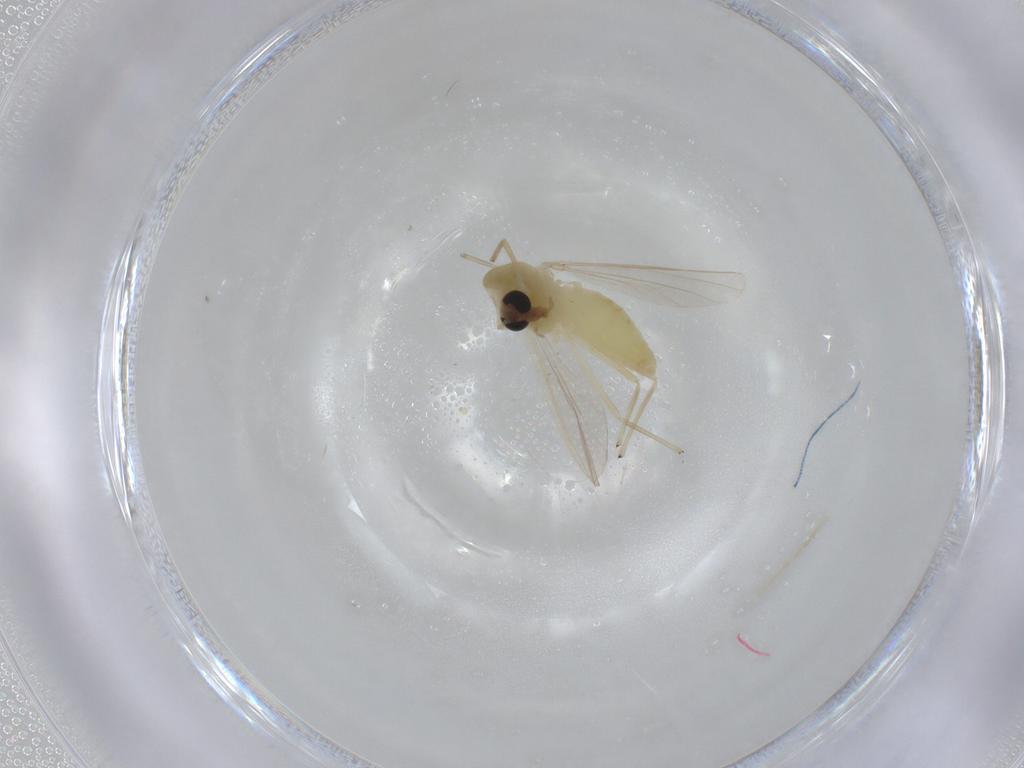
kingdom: Animalia
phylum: Arthropoda
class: Insecta
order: Diptera
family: Chironomidae
